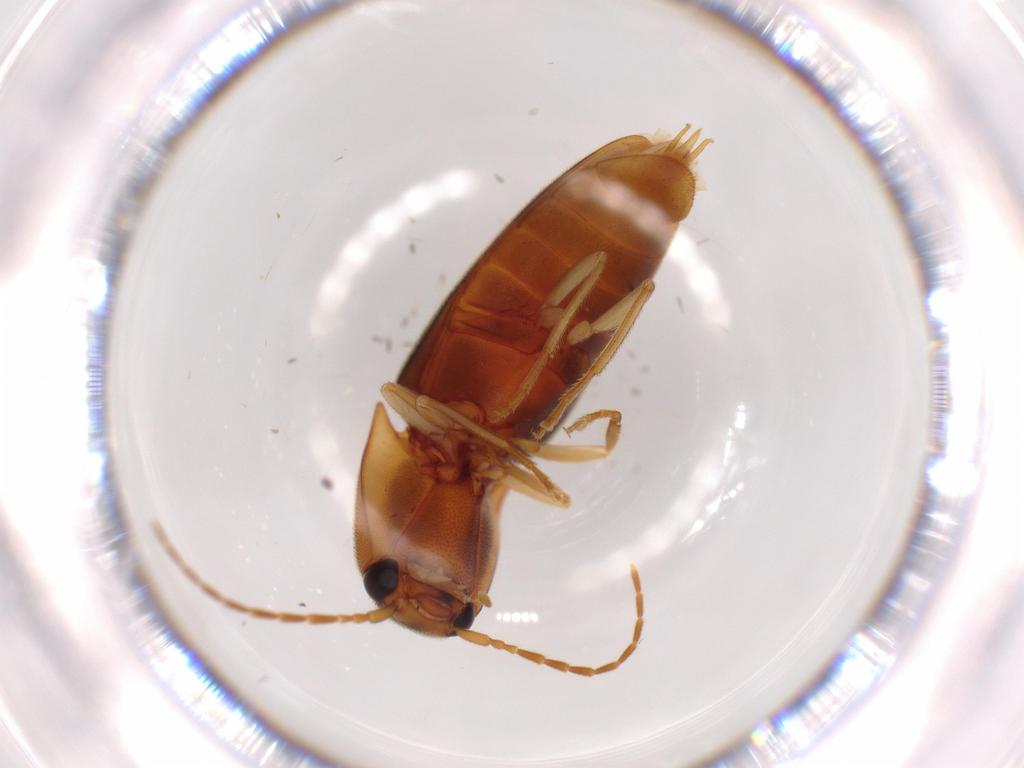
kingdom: Animalia
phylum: Arthropoda
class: Insecta
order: Coleoptera
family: Elateridae
